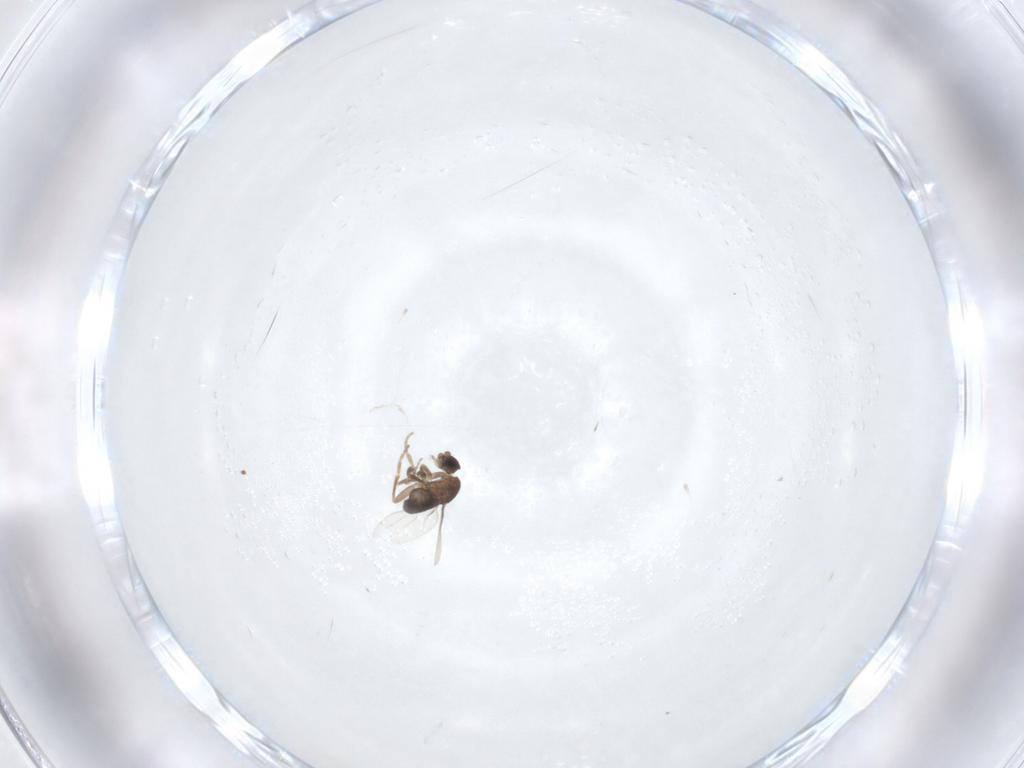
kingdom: Animalia
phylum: Arthropoda
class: Insecta
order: Diptera
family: Phoridae
